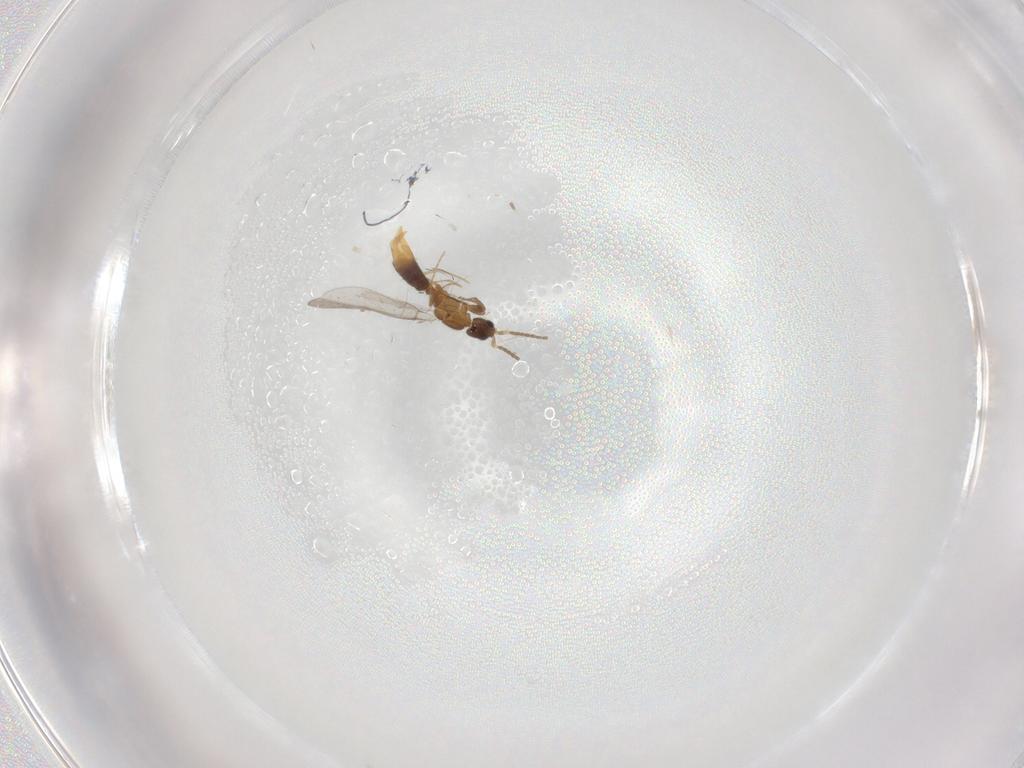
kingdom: Animalia
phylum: Arthropoda
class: Insecta
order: Hymenoptera
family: Formicidae
